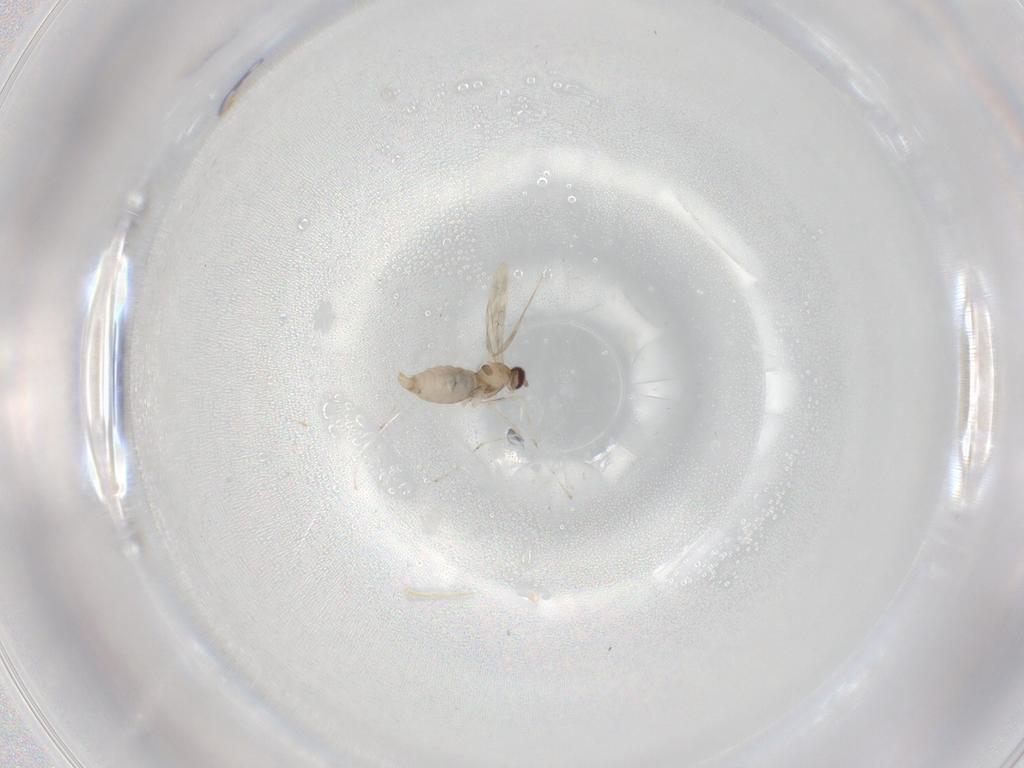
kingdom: Animalia
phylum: Arthropoda
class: Insecta
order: Diptera
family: Cecidomyiidae
